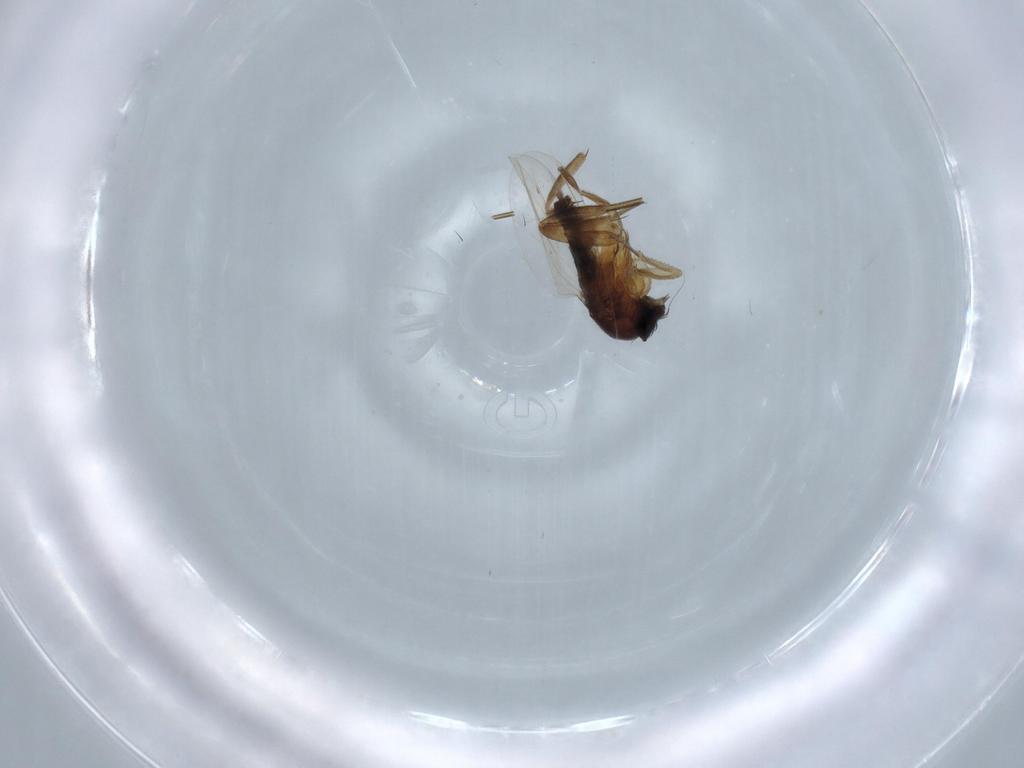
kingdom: Animalia
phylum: Arthropoda
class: Insecta
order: Diptera
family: Phoridae
